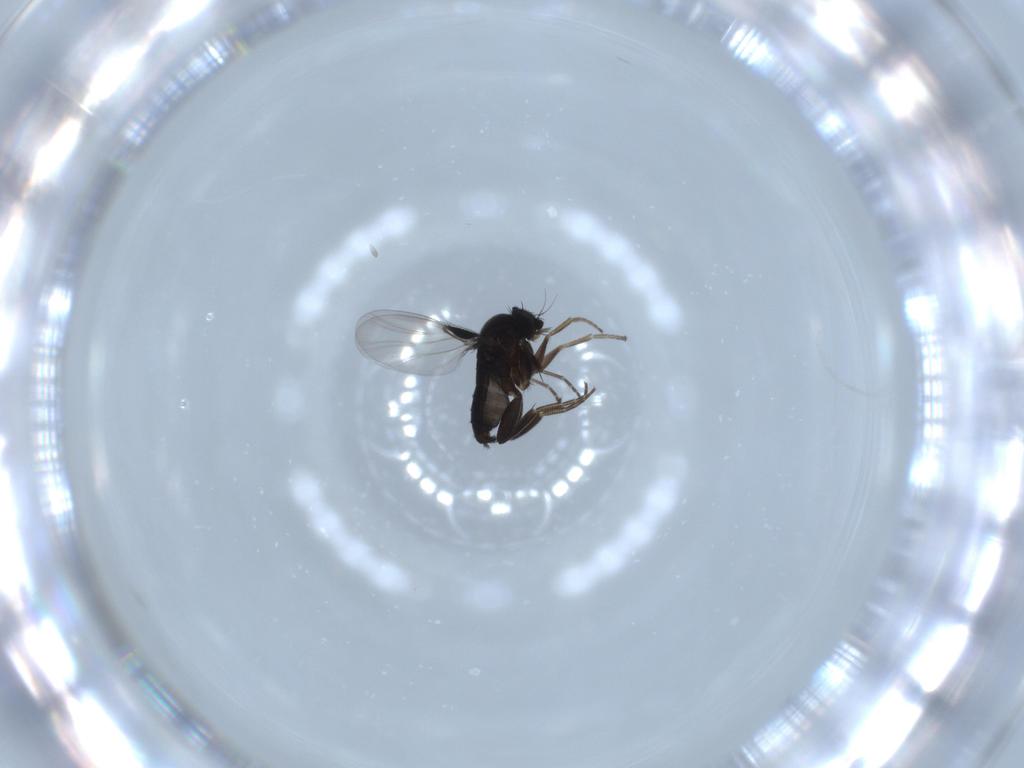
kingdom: Animalia
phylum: Arthropoda
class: Insecta
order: Diptera
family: Phoridae
